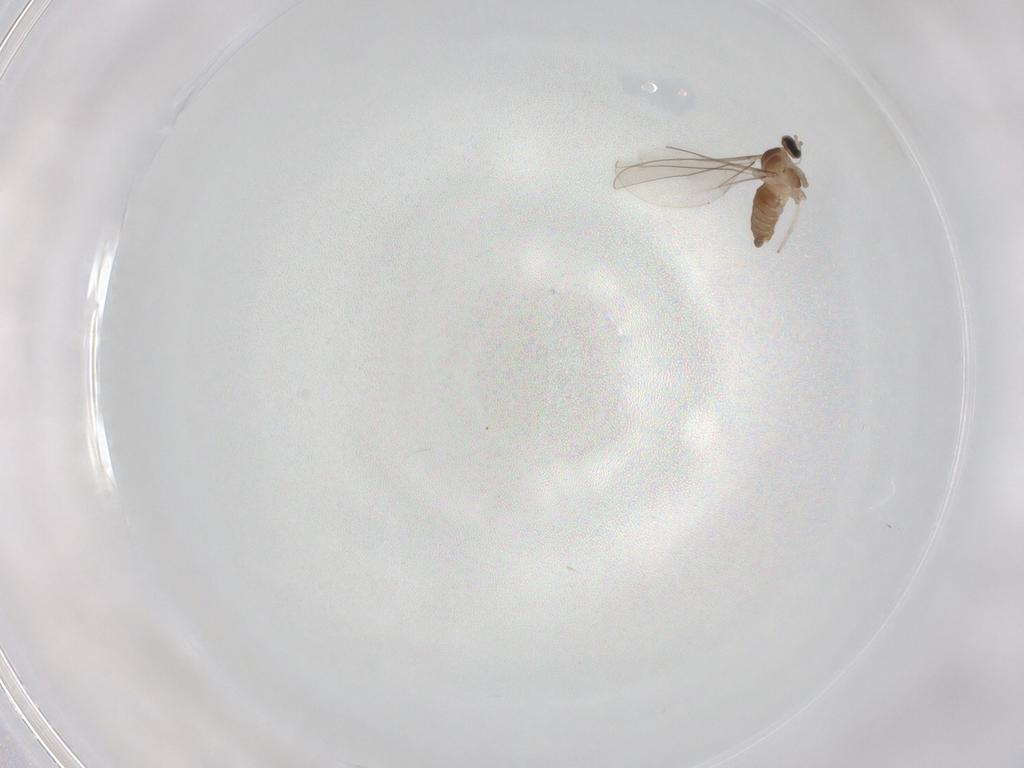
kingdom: Animalia
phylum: Arthropoda
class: Insecta
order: Diptera
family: Cecidomyiidae
